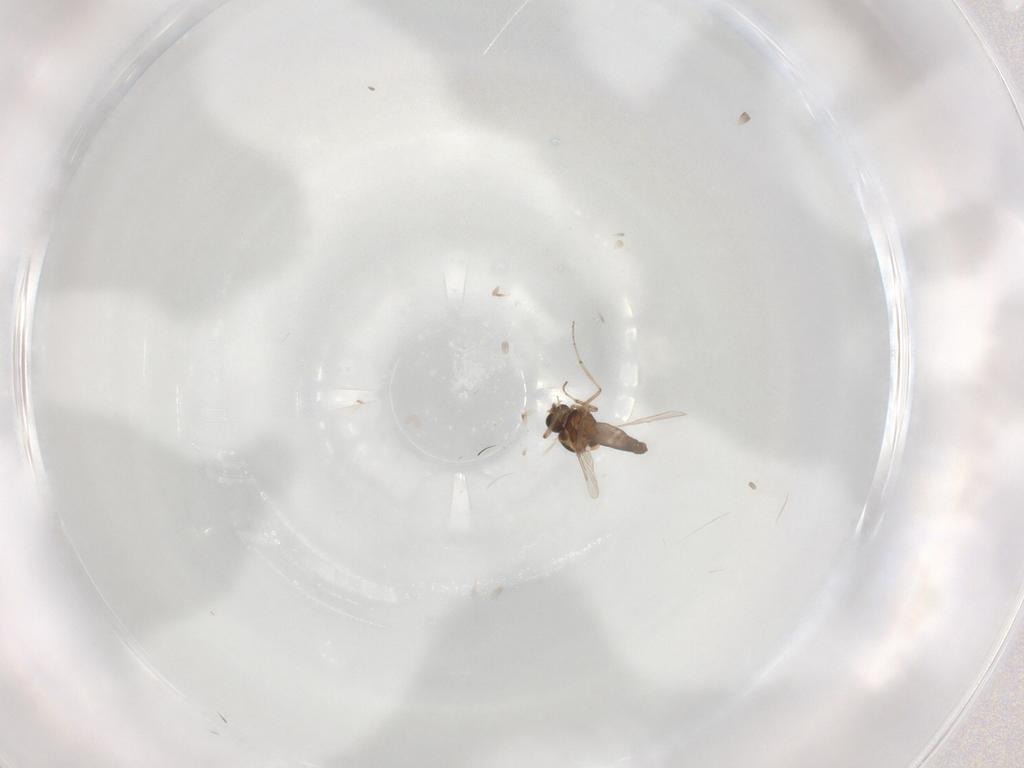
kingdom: Animalia
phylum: Arthropoda
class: Insecta
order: Diptera
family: Ceratopogonidae
